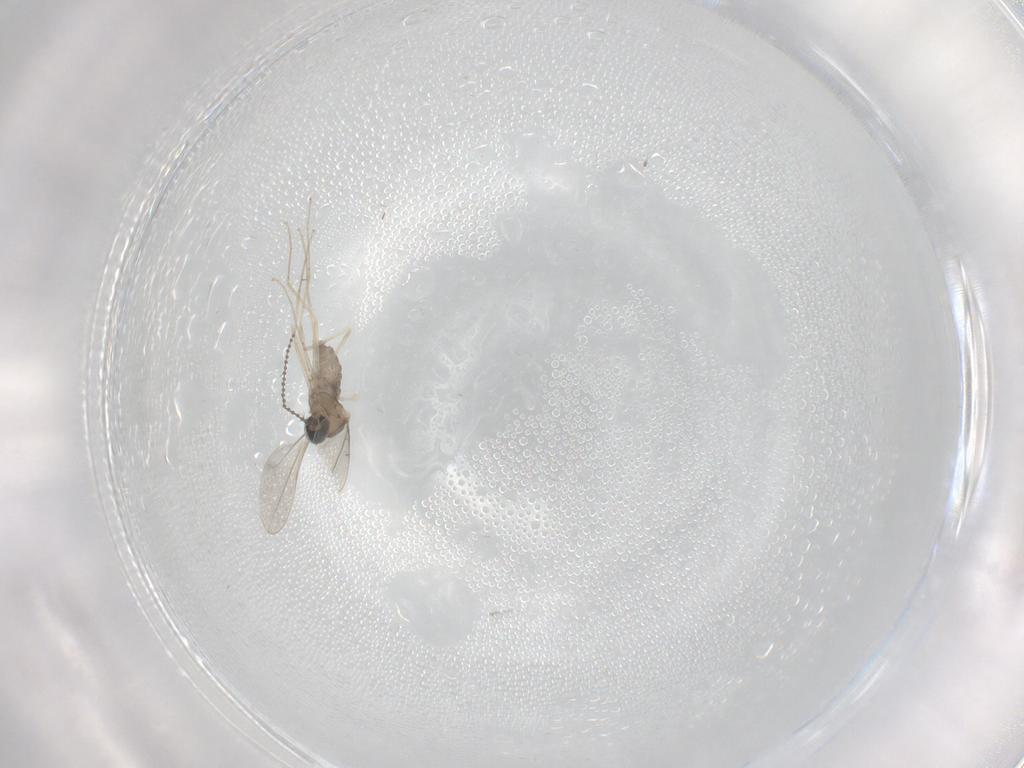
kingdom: Animalia
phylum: Arthropoda
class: Insecta
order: Diptera
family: Cecidomyiidae
